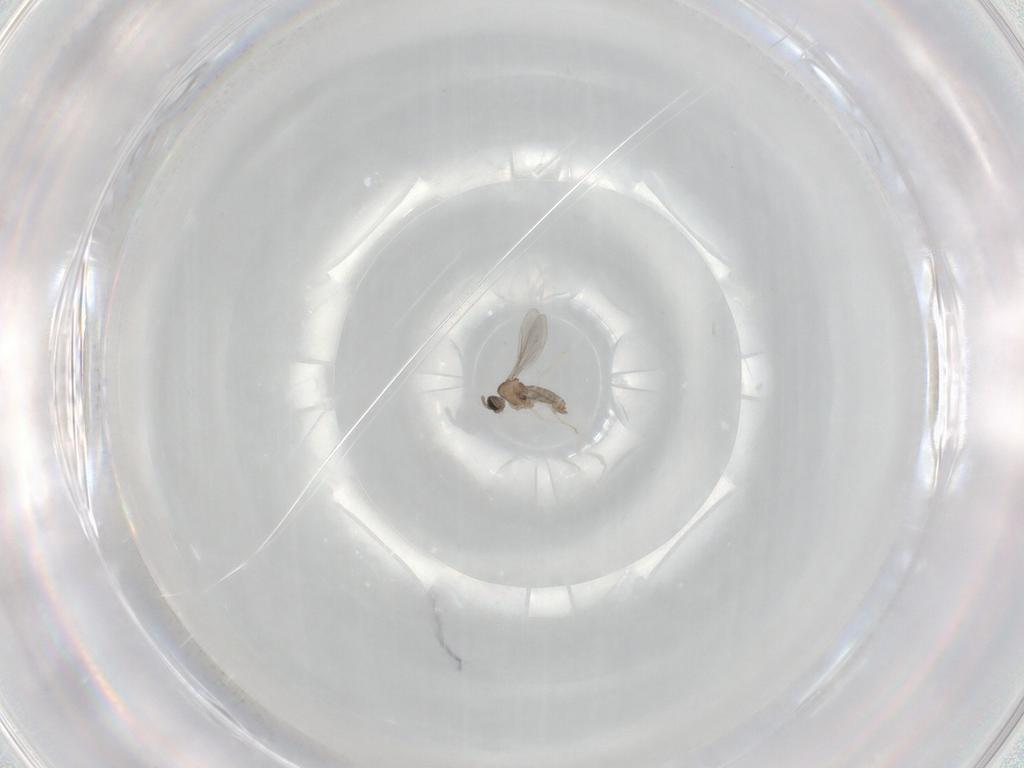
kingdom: Animalia
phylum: Arthropoda
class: Insecta
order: Diptera
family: Cecidomyiidae
